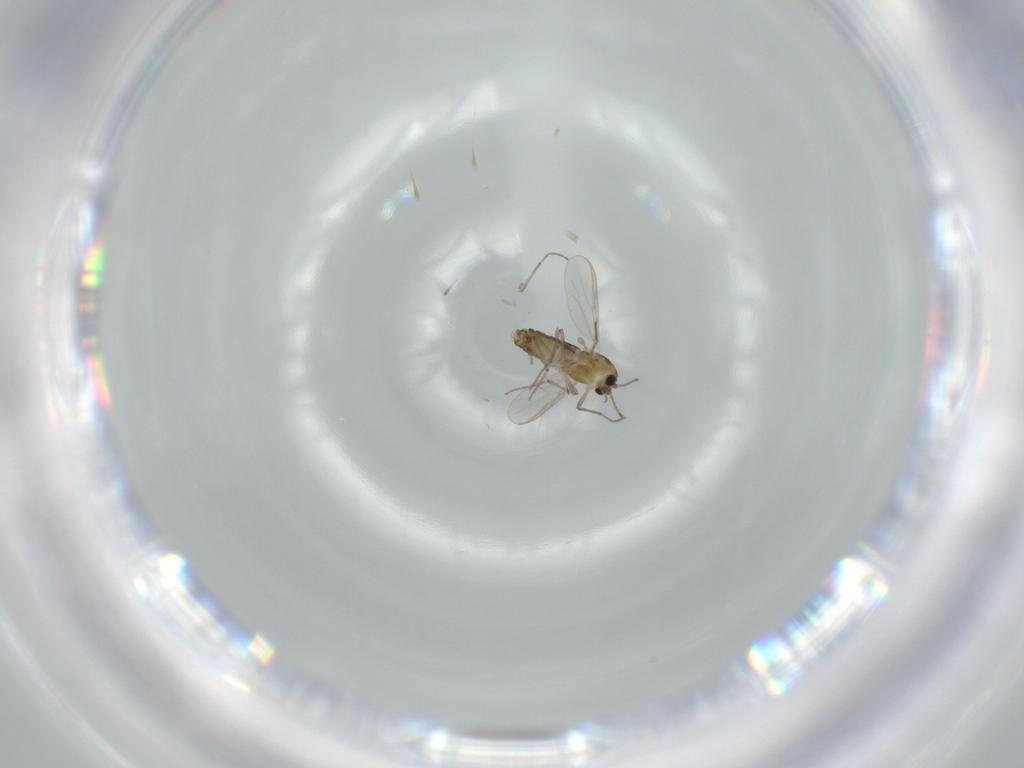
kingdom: Animalia
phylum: Arthropoda
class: Insecta
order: Diptera
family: Chironomidae
